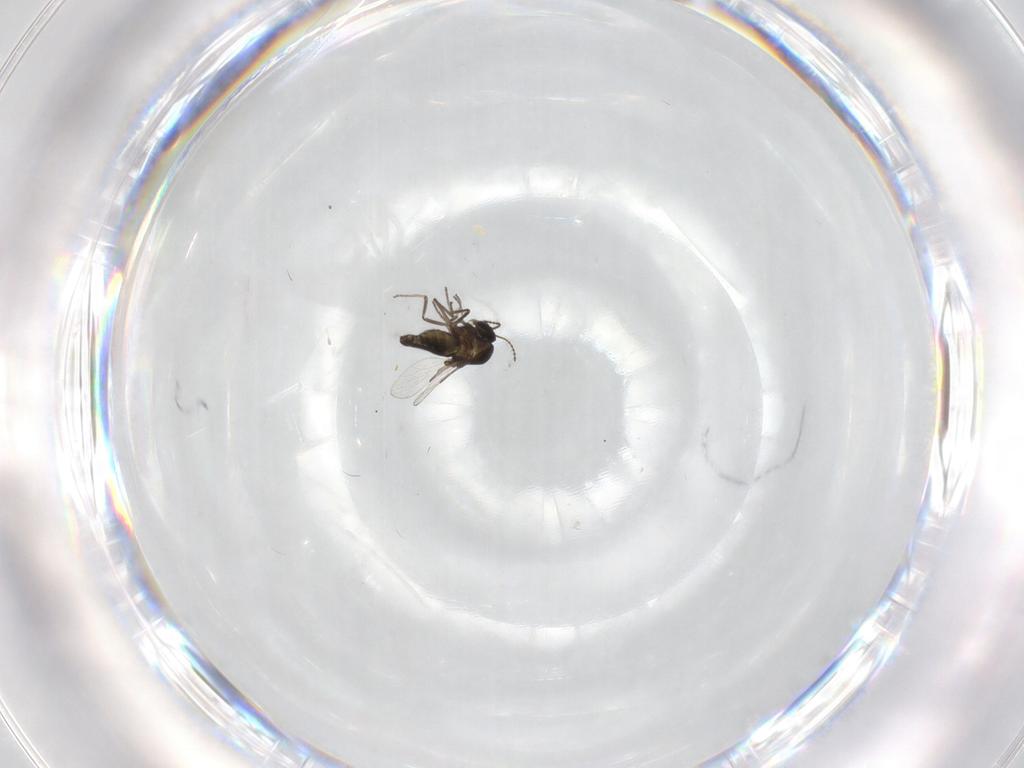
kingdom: Animalia
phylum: Arthropoda
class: Insecta
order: Diptera
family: Ceratopogonidae
